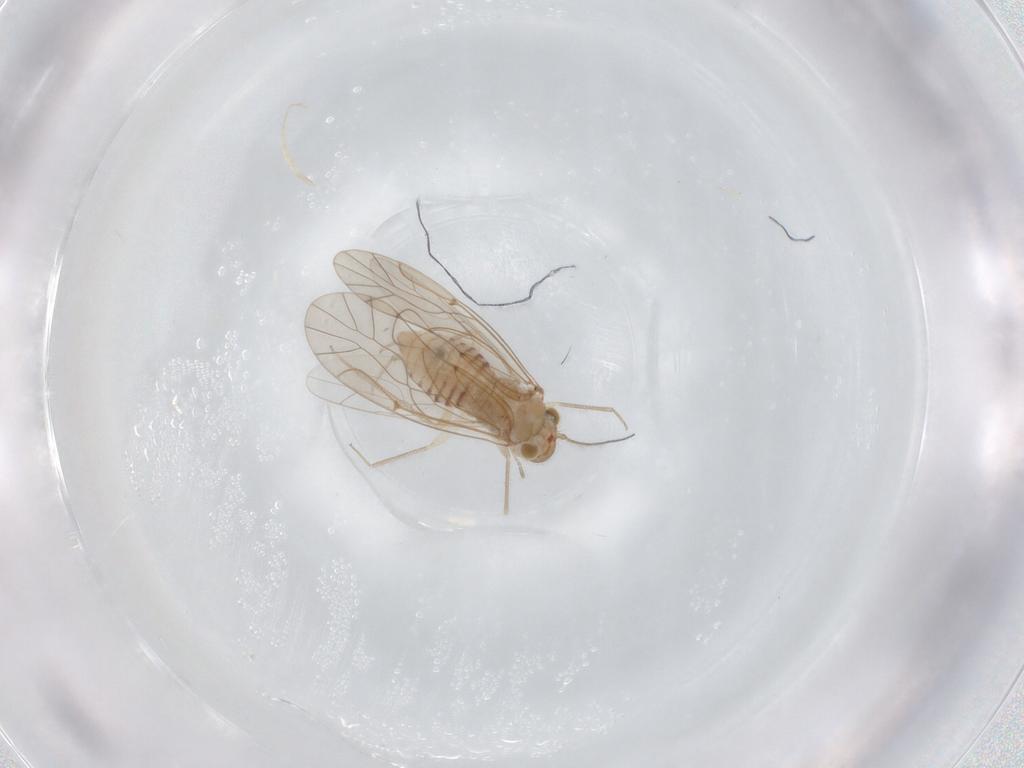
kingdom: Animalia
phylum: Arthropoda
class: Insecta
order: Psocodea
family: Lachesillidae
